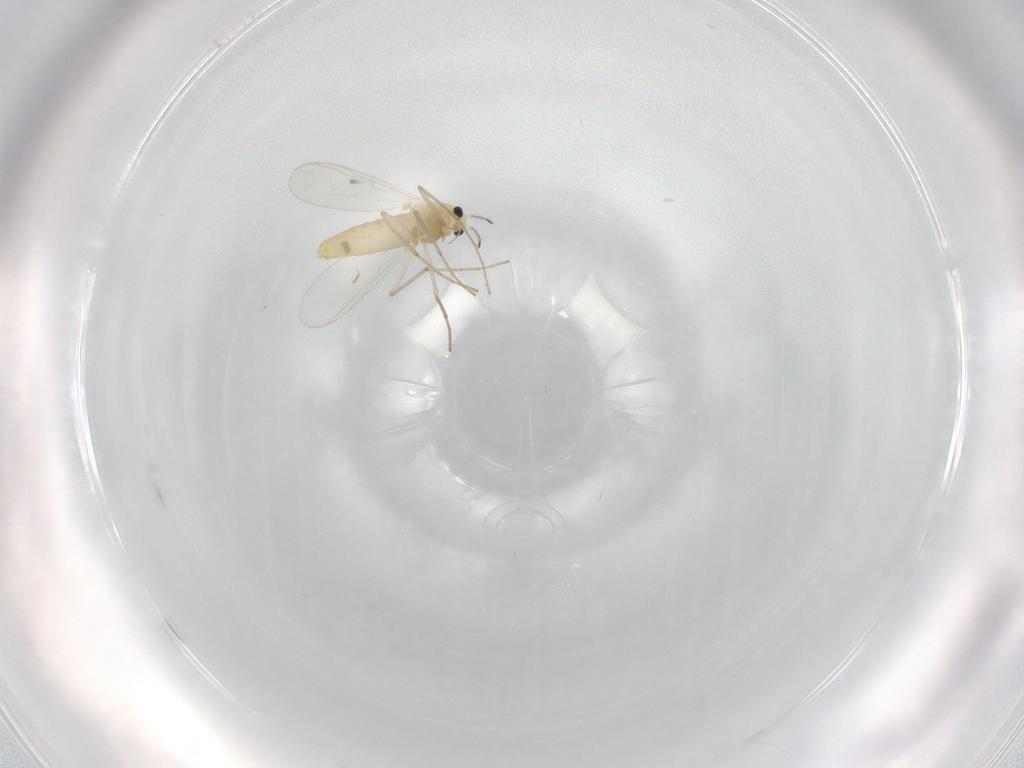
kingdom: Animalia
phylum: Arthropoda
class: Insecta
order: Diptera
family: Chironomidae
